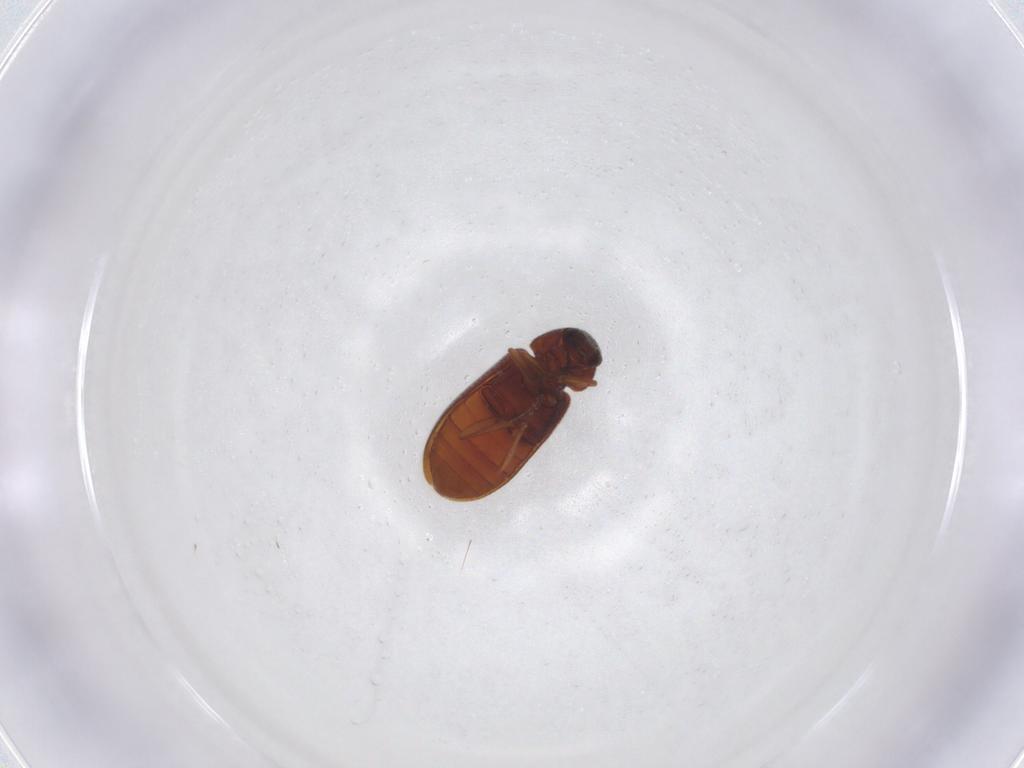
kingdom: Animalia
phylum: Arthropoda
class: Insecta
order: Coleoptera
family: Rhadalidae
